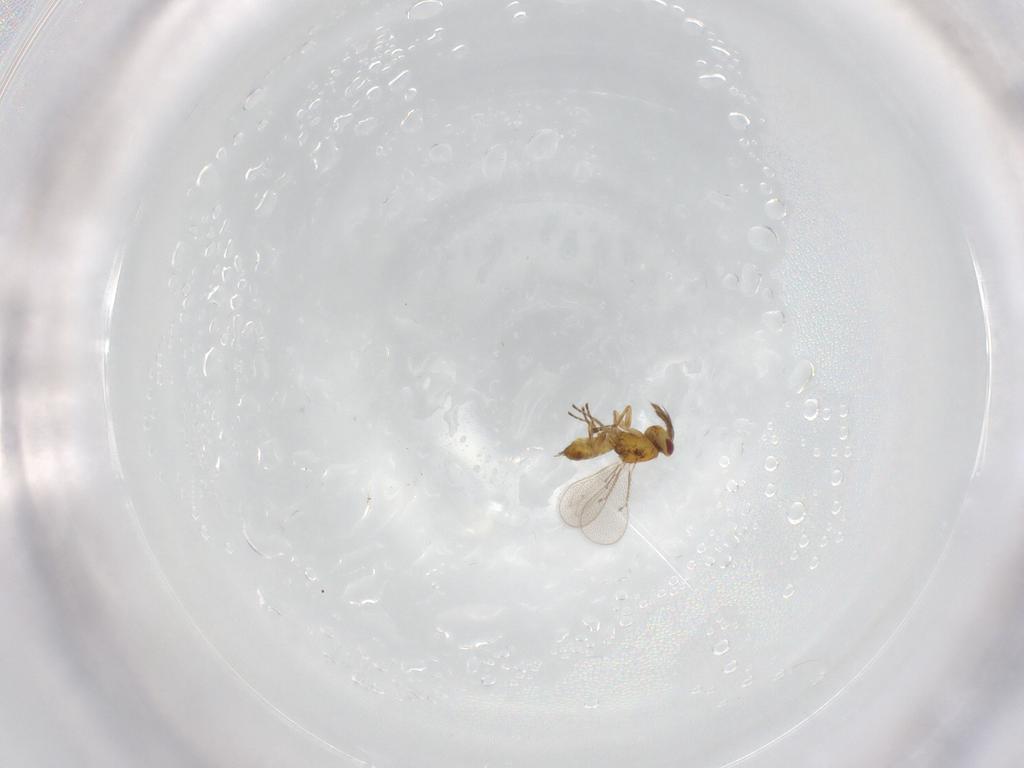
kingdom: Animalia
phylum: Arthropoda
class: Insecta
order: Hymenoptera
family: Eulophidae
